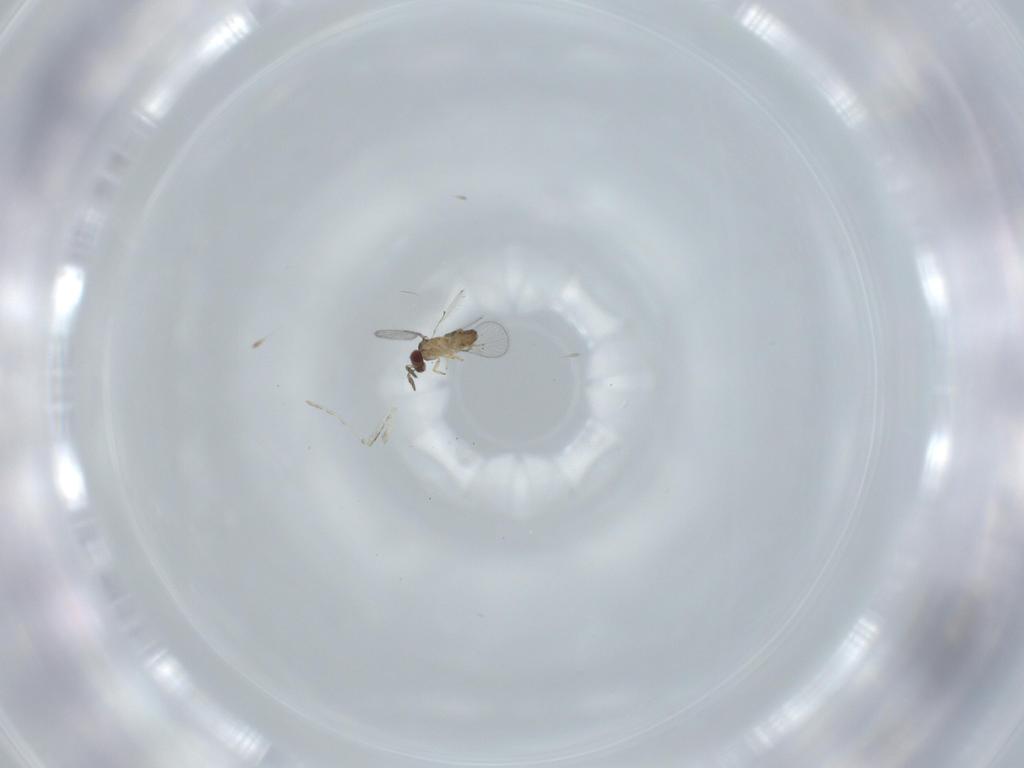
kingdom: Animalia
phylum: Arthropoda
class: Insecta
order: Hymenoptera
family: Trichogrammatidae
